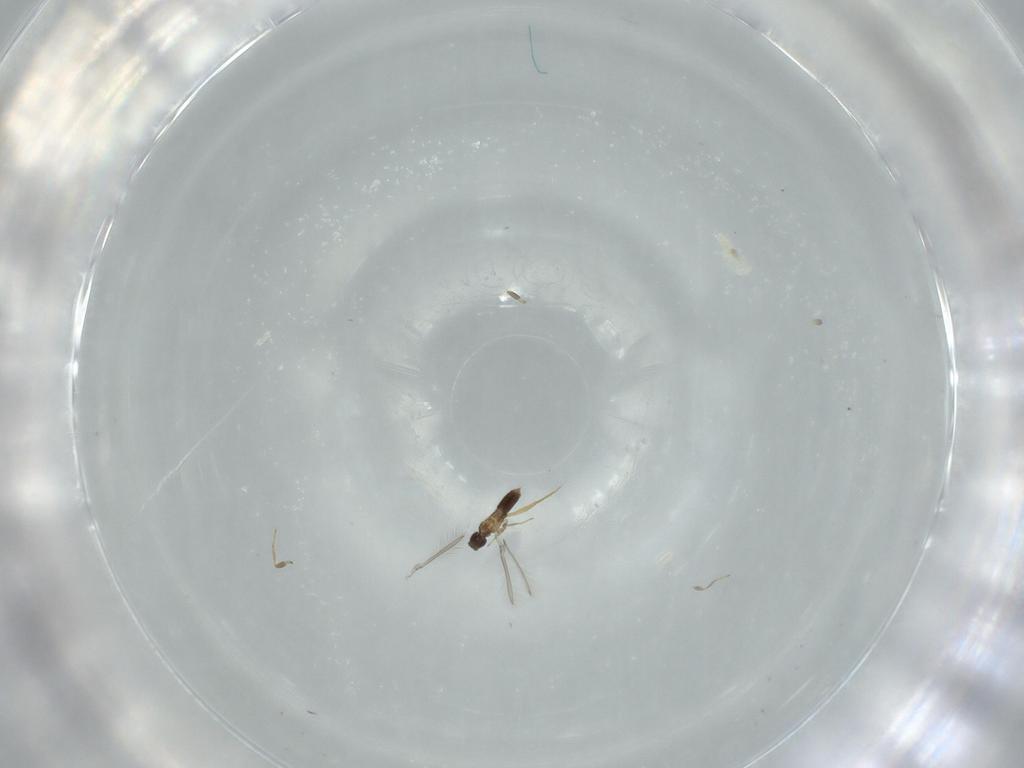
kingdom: Animalia
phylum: Arthropoda
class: Insecta
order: Hymenoptera
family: Mymaridae
